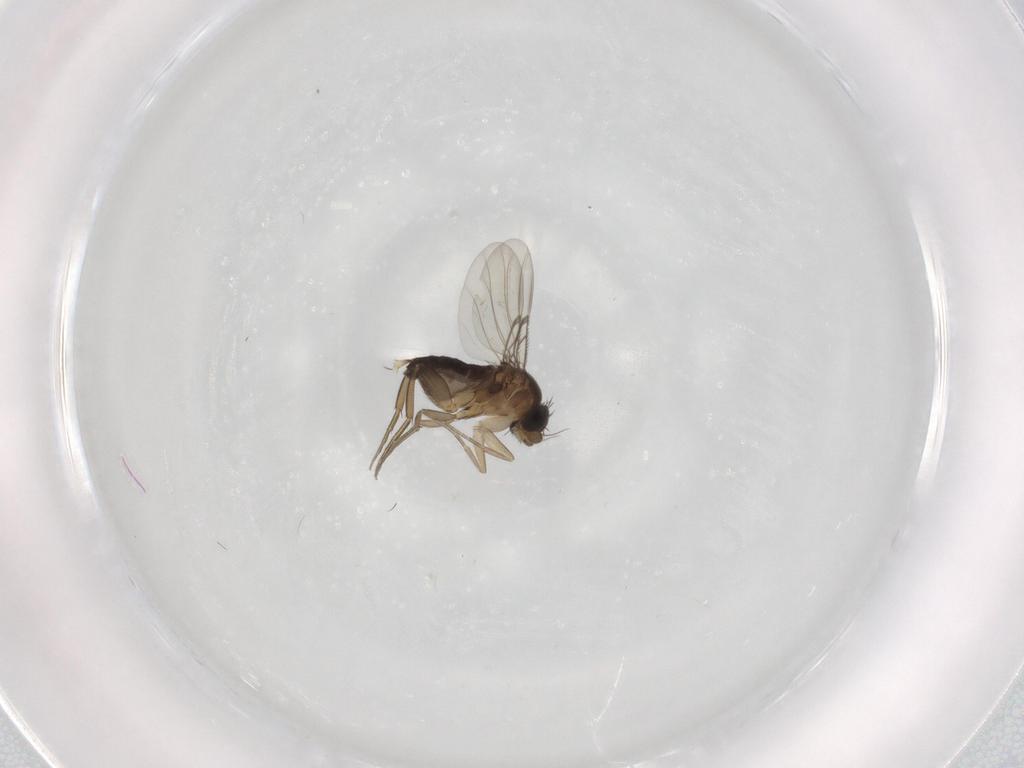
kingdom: Animalia
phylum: Arthropoda
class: Insecta
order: Diptera
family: Phoridae
